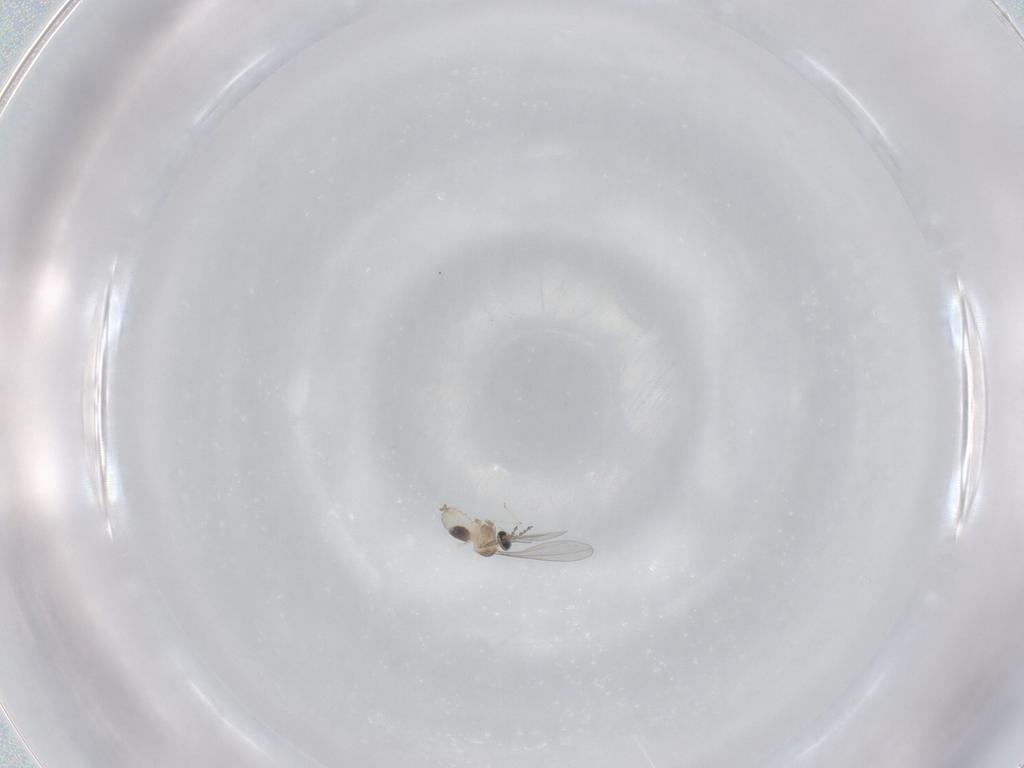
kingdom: Animalia
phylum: Arthropoda
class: Insecta
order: Diptera
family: Cecidomyiidae
